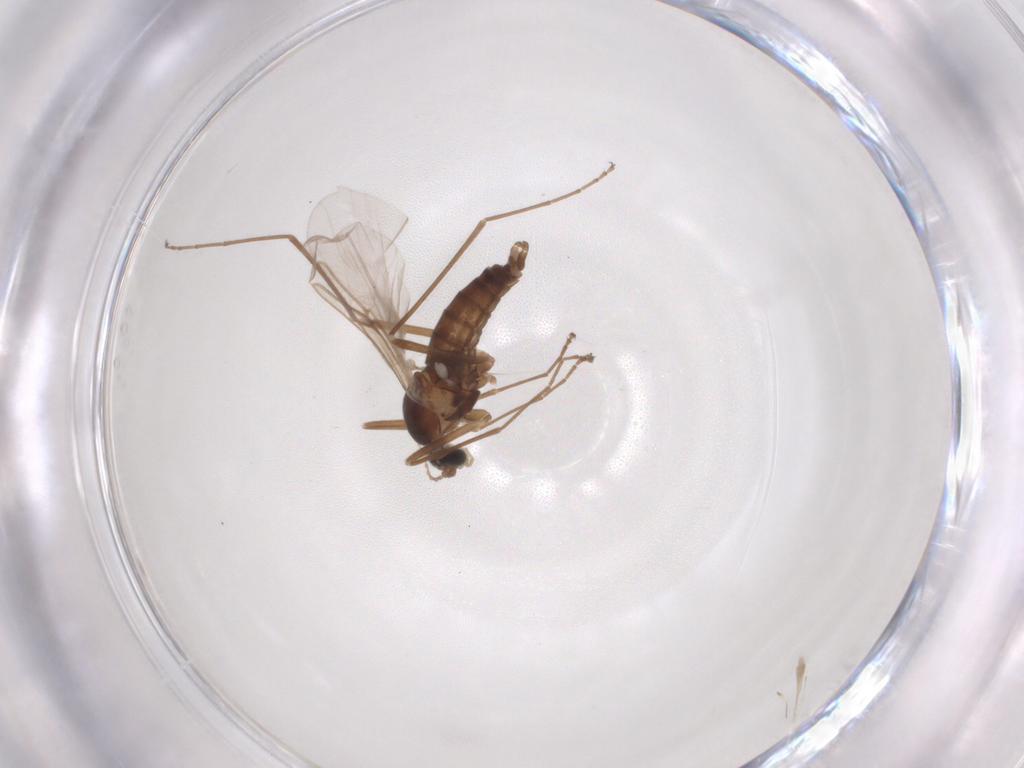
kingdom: Animalia
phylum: Arthropoda
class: Insecta
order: Diptera
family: Cecidomyiidae
